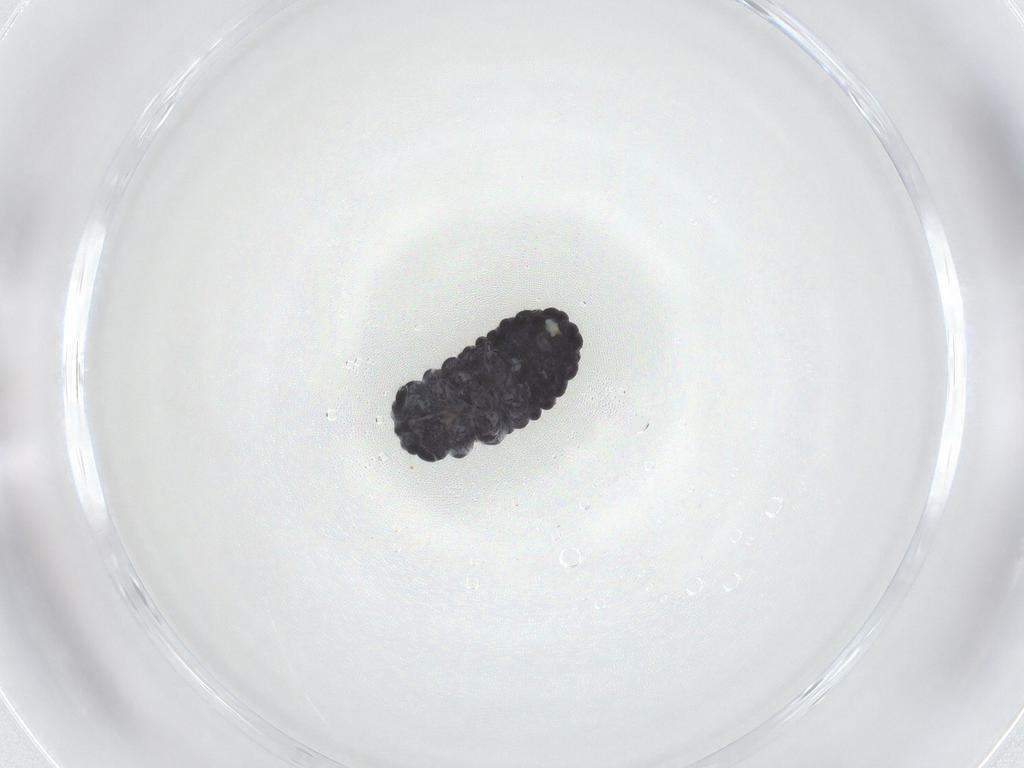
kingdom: Animalia
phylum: Arthropoda
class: Collembola
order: Poduromorpha
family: Neanuridae
